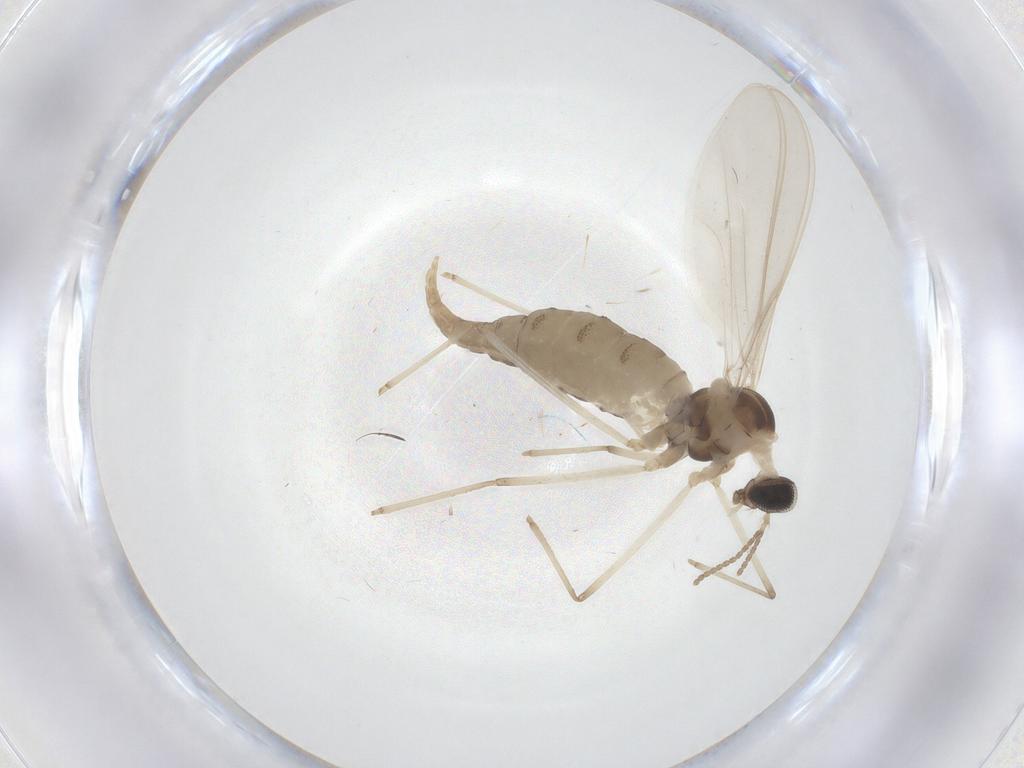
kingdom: Animalia
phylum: Arthropoda
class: Insecta
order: Diptera
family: Cecidomyiidae
